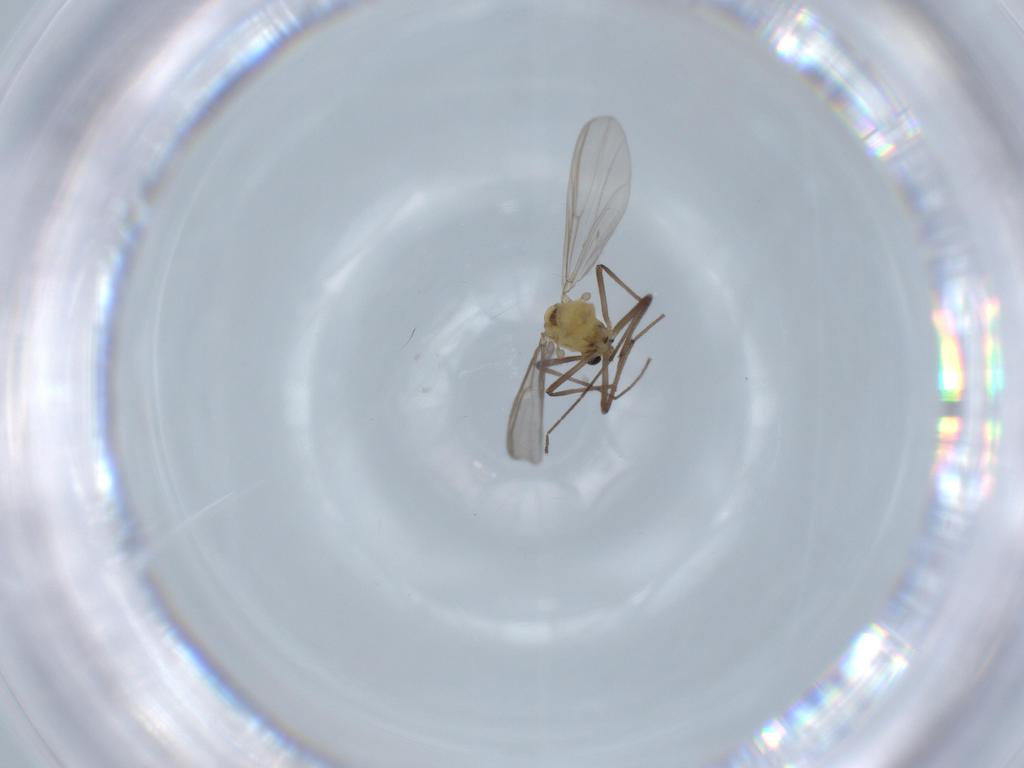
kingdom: Animalia
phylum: Arthropoda
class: Insecta
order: Diptera
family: Chironomidae
